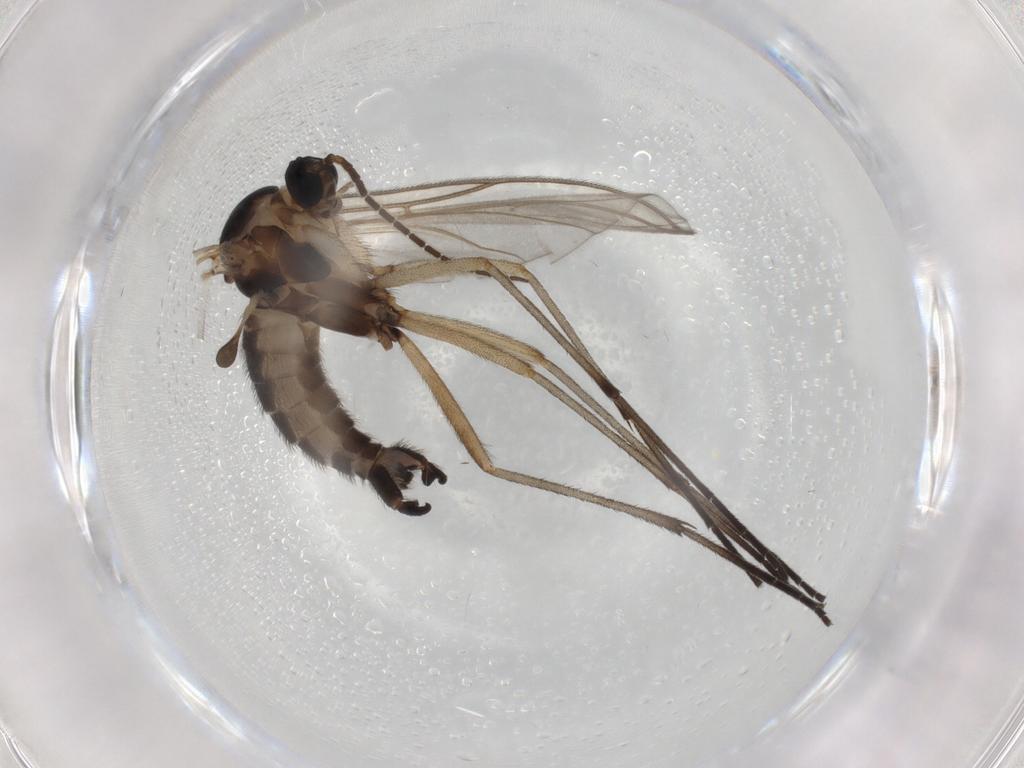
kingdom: Animalia
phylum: Arthropoda
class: Insecta
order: Diptera
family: Sciaridae
